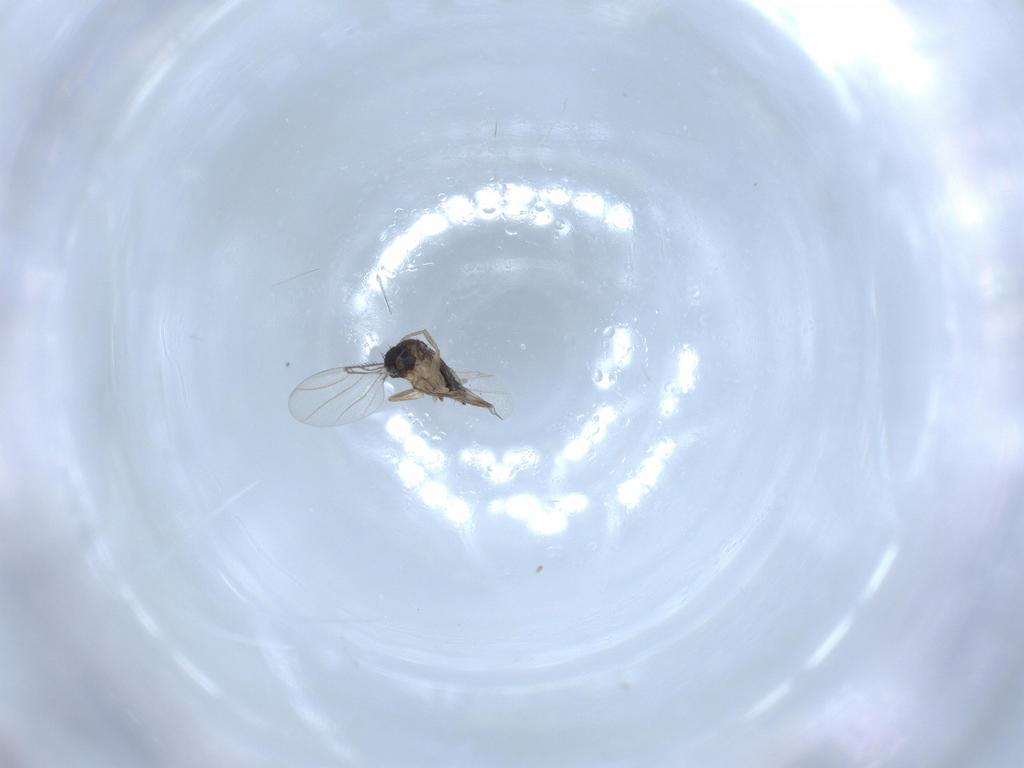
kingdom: Animalia
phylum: Arthropoda
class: Insecta
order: Diptera
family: Phoridae
